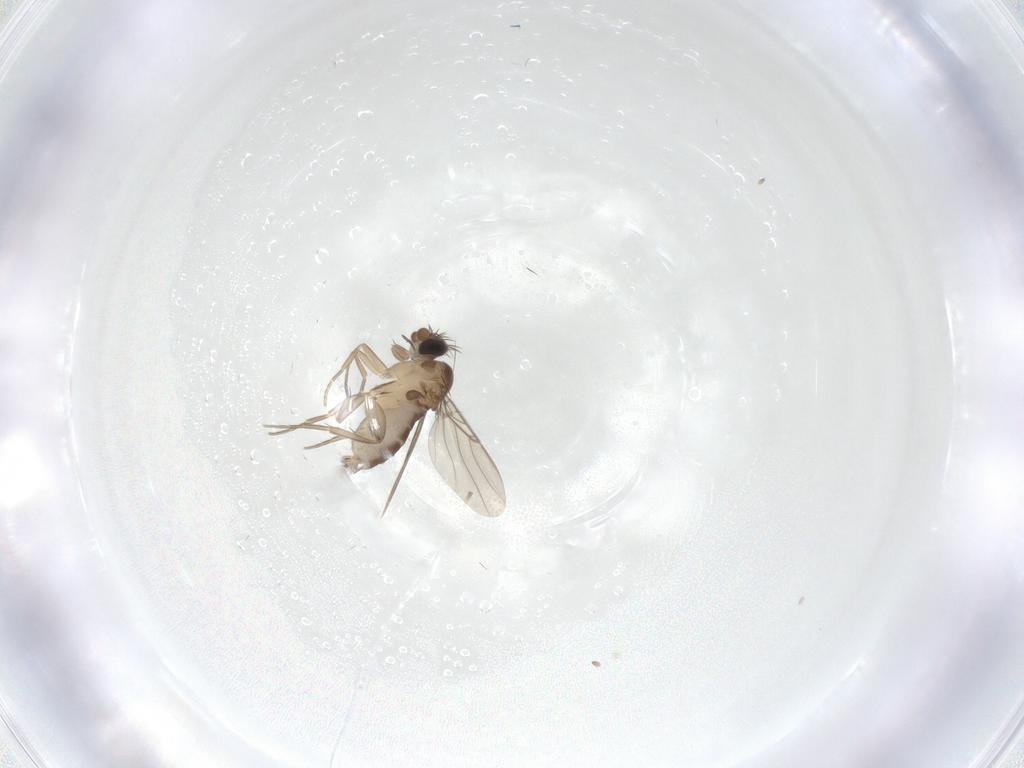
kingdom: Animalia
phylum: Arthropoda
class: Insecta
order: Diptera
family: Phoridae
